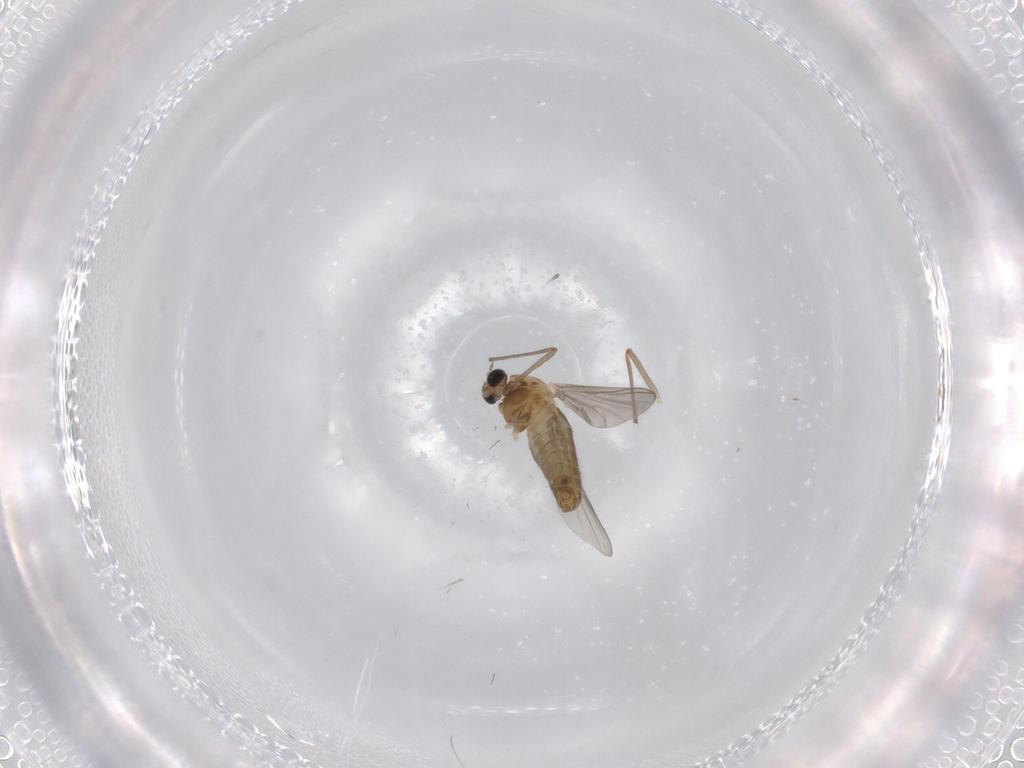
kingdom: Animalia
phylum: Arthropoda
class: Insecta
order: Diptera
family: Chironomidae
